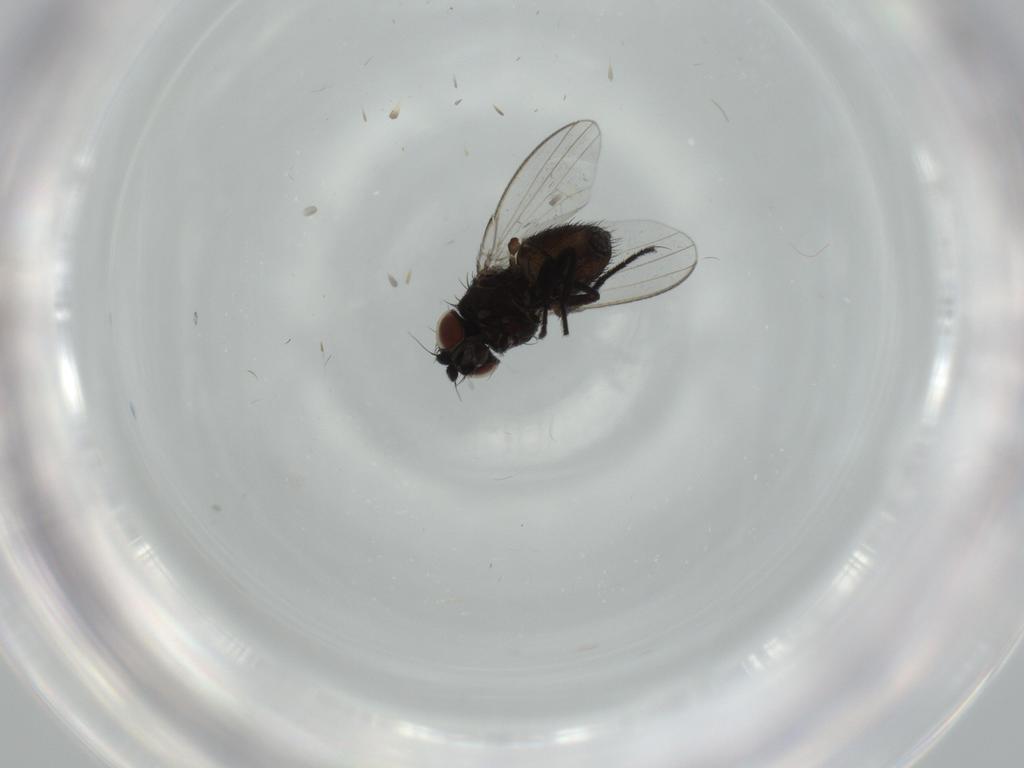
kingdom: Animalia
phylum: Arthropoda
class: Insecta
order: Diptera
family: Milichiidae
